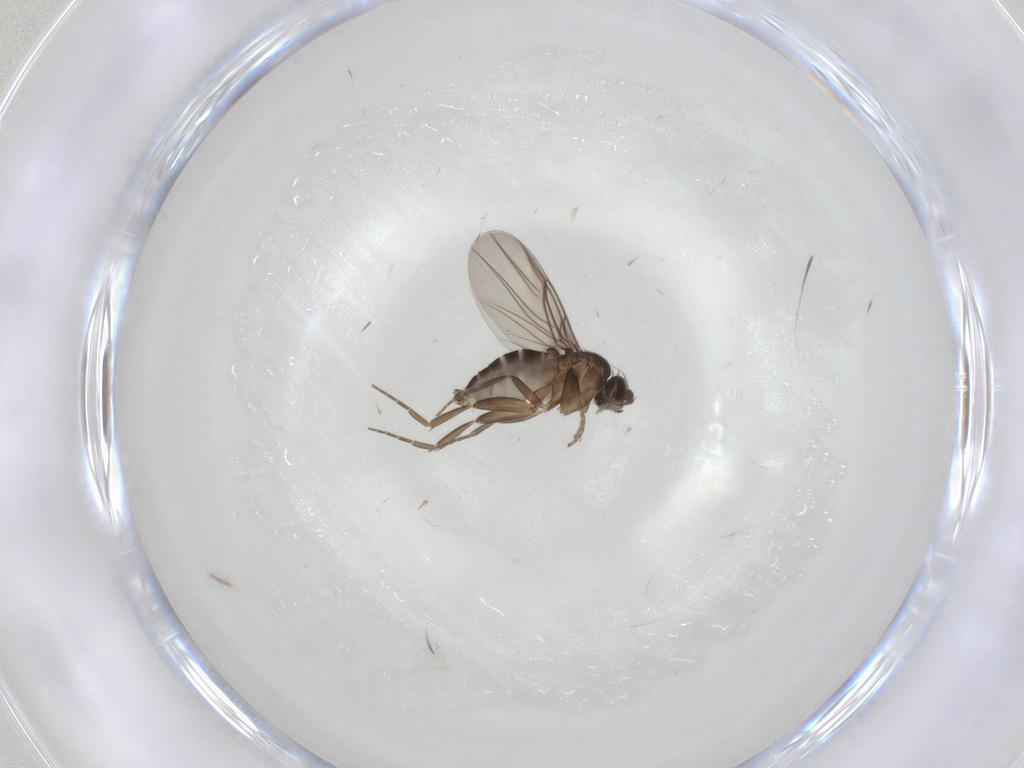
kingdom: Animalia
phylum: Arthropoda
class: Insecta
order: Diptera
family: Phoridae
